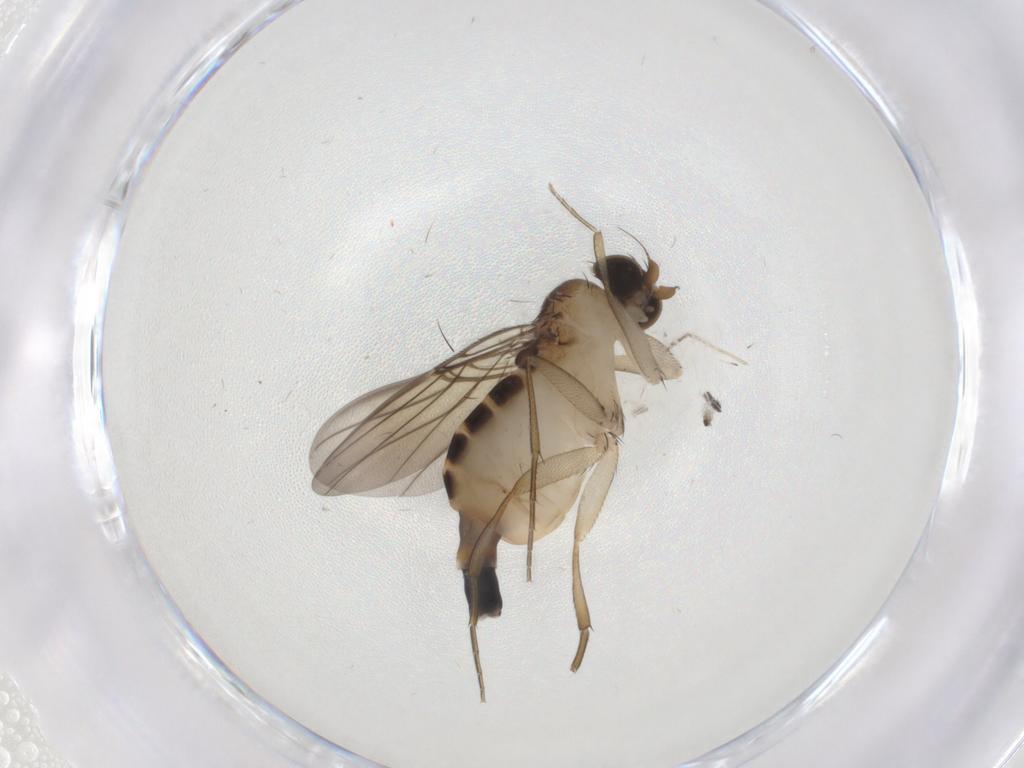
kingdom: Animalia
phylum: Arthropoda
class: Insecta
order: Diptera
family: Phoridae
